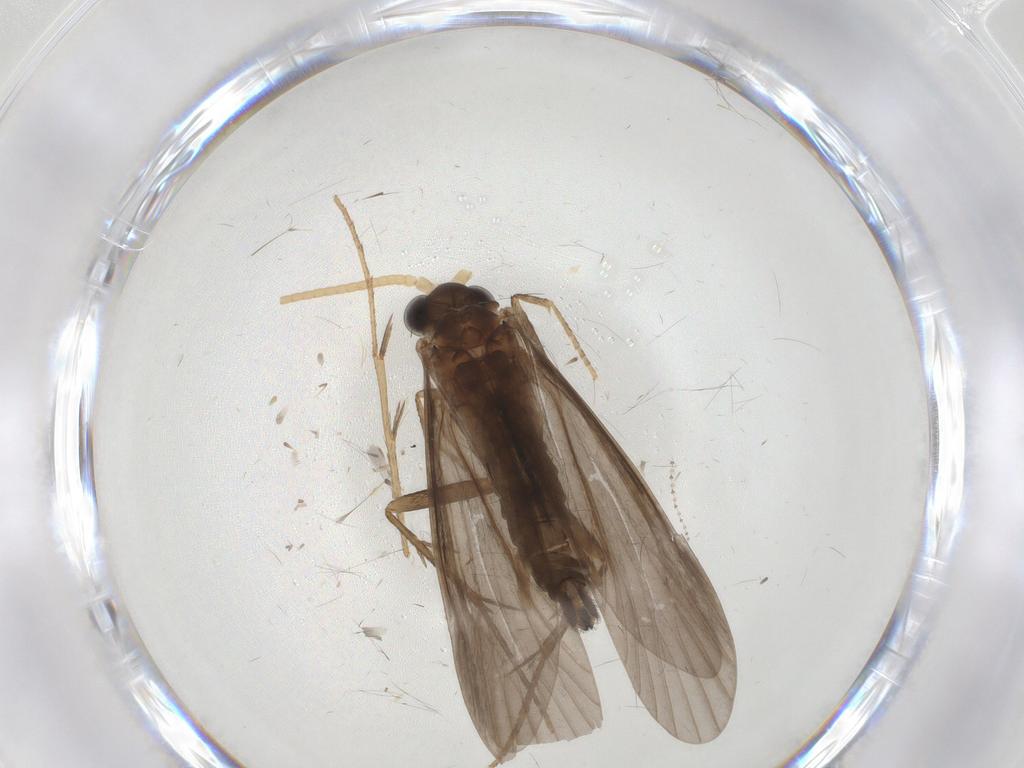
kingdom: Animalia
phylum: Arthropoda
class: Insecta
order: Trichoptera
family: Ecnomidae
